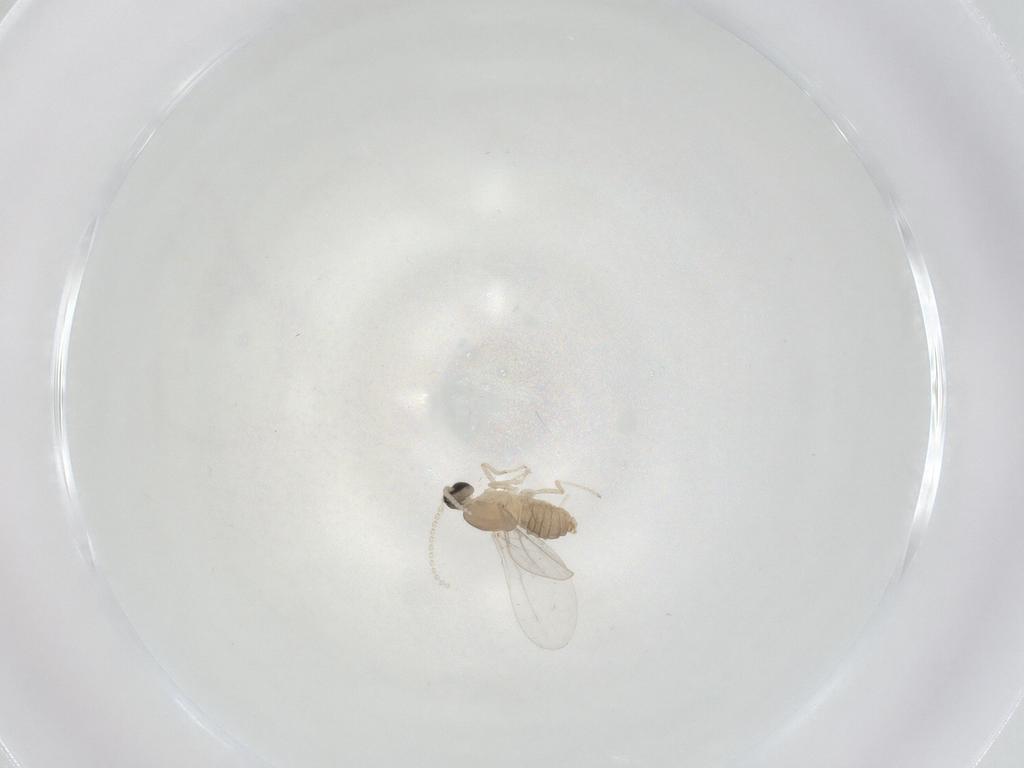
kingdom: Animalia
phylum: Arthropoda
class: Insecta
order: Diptera
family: Cecidomyiidae
